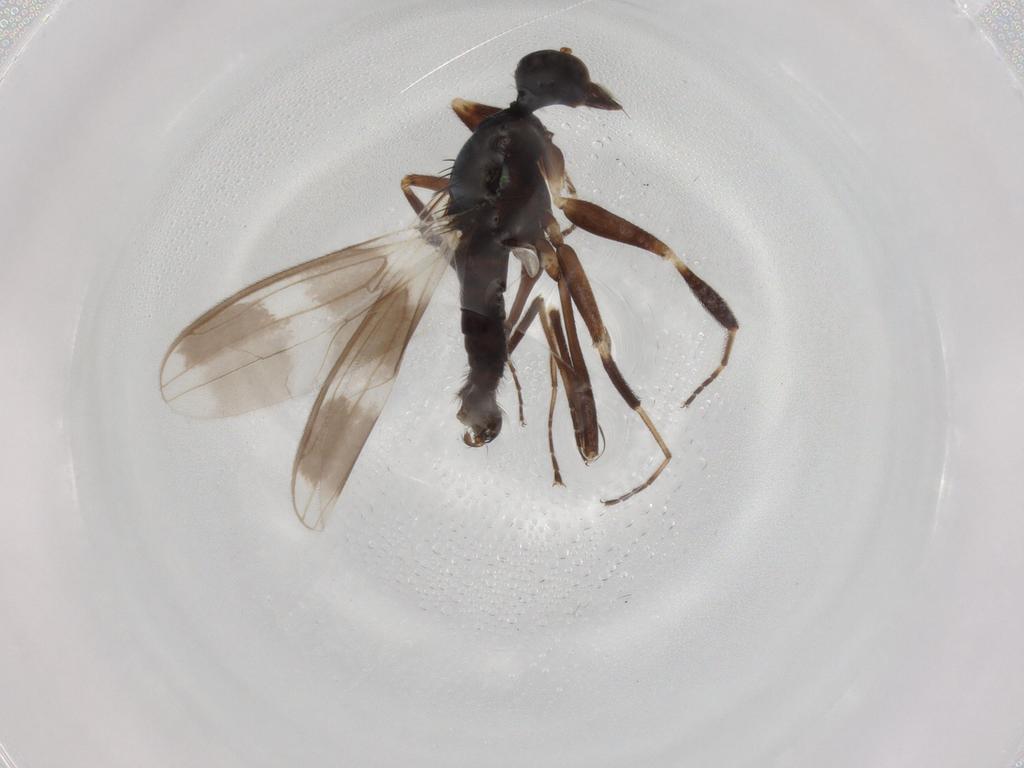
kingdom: Animalia
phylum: Arthropoda
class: Insecta
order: Diptera
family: Hybotidae
